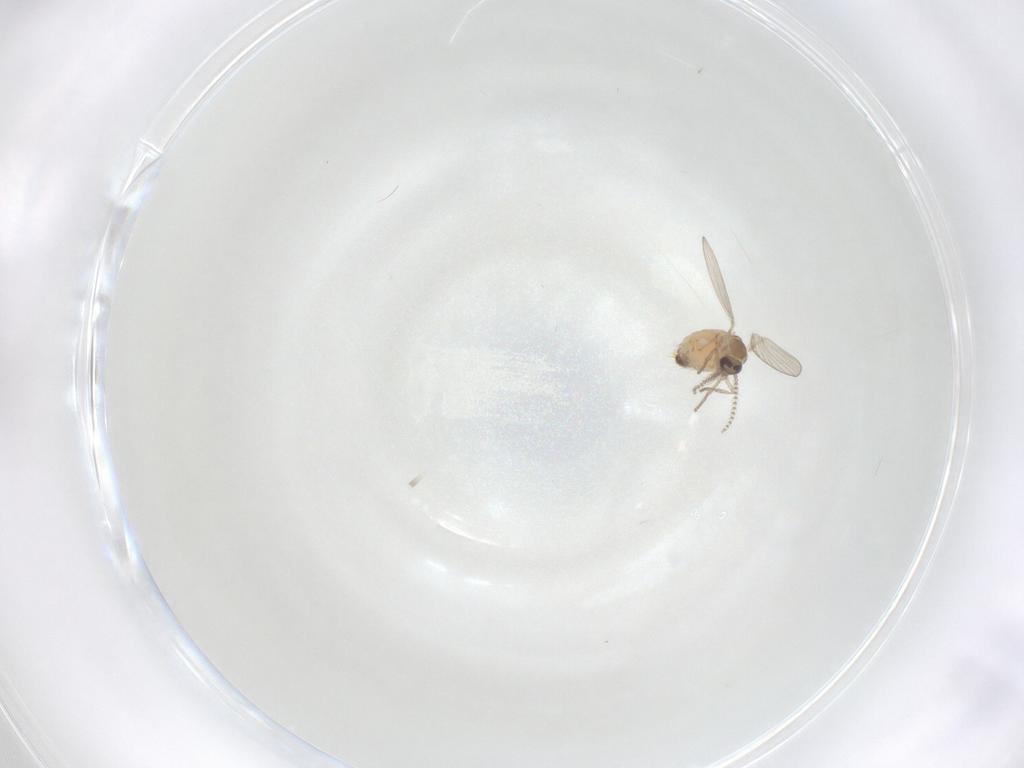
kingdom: Animalia
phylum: Arthropoda
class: Insecta
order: Diptera
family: Psychodidae
